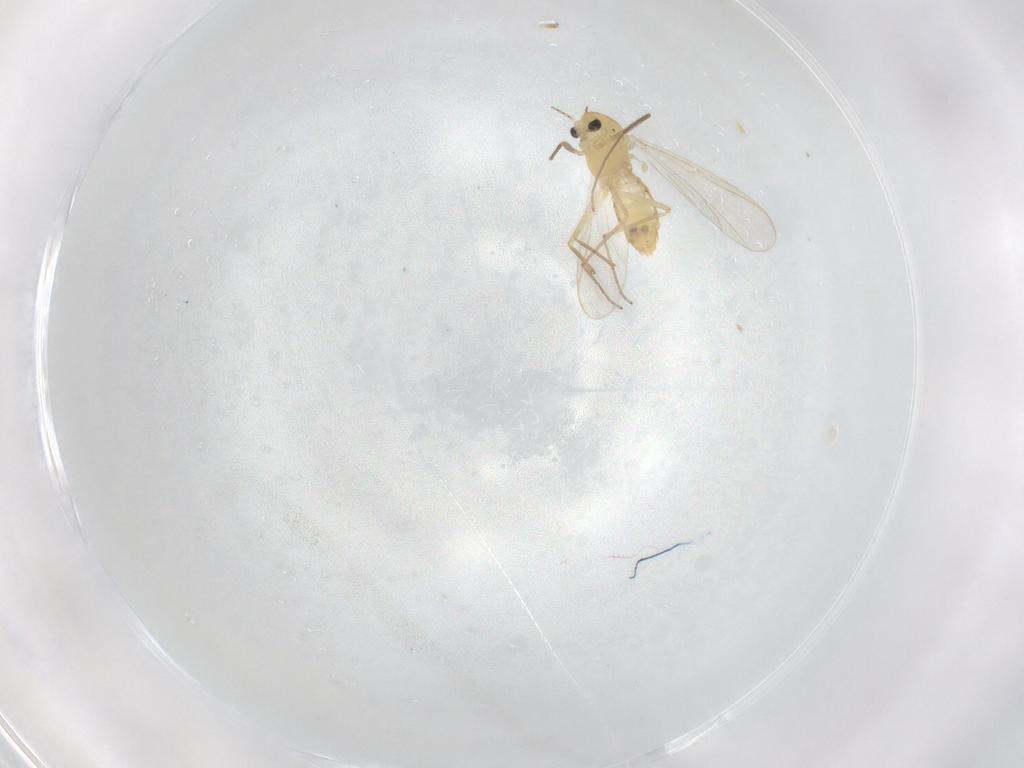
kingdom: Animalia
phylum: Arthropoda
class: Insecta
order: Diptera
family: Chironomidae
